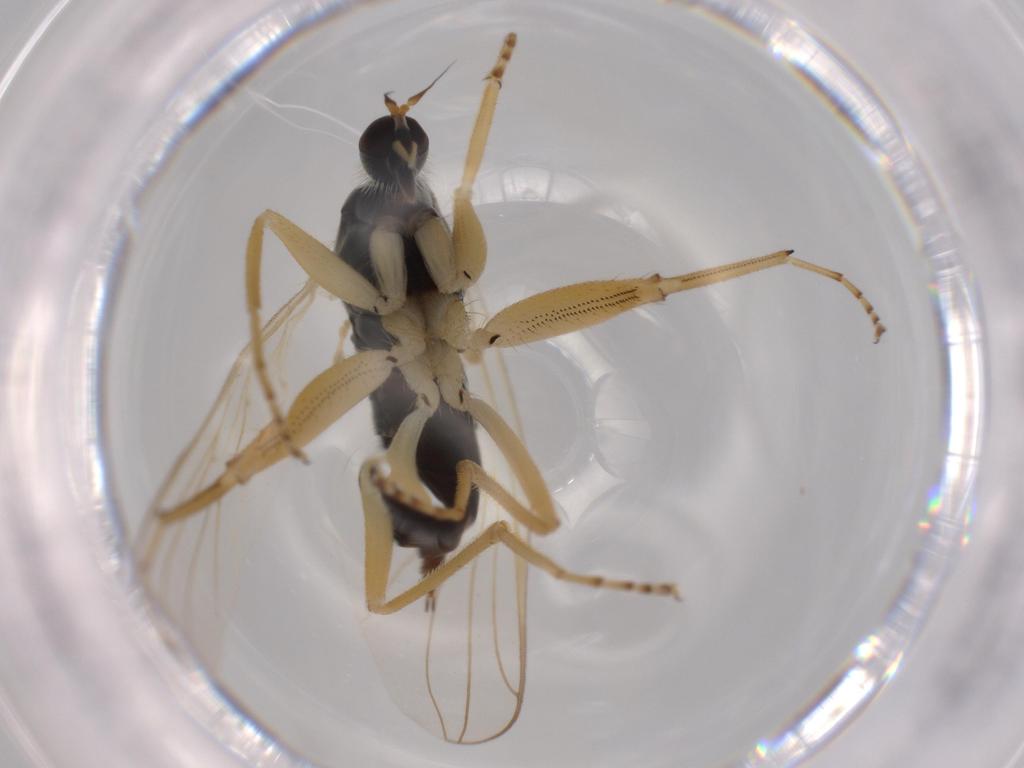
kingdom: Animalia
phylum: Arthropoda
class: Insecta
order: Diptera
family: Hybotidae
